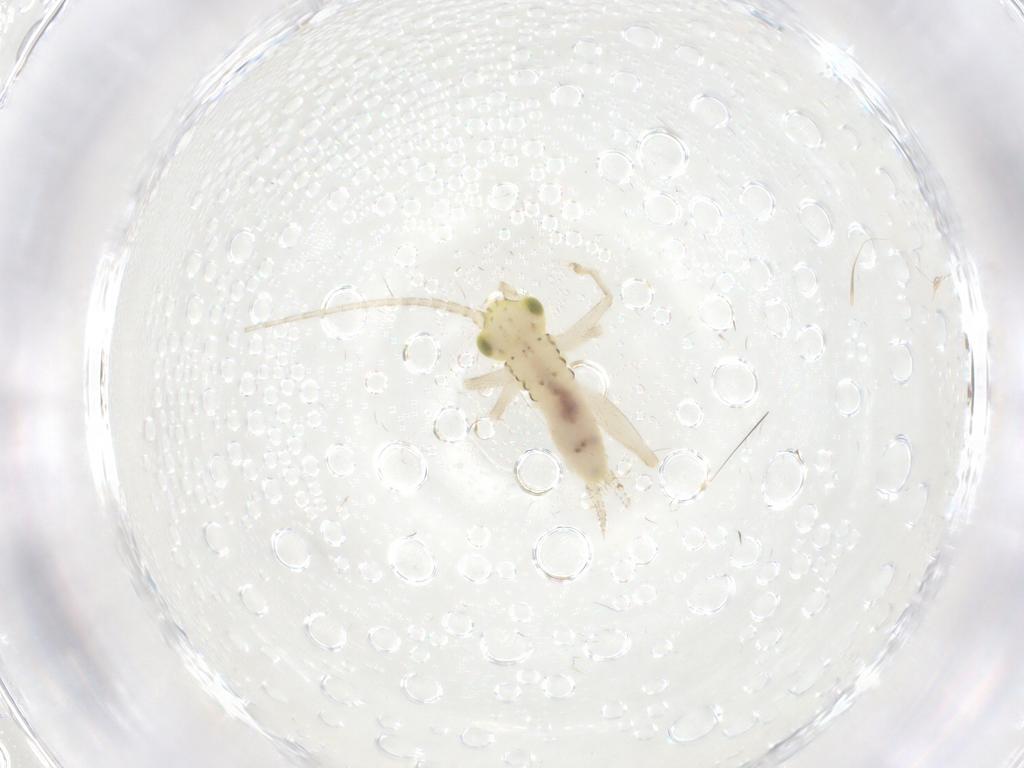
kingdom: Animalia
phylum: Arthropoda
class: Insecta
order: Orthoptera
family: Trigonidiidae
